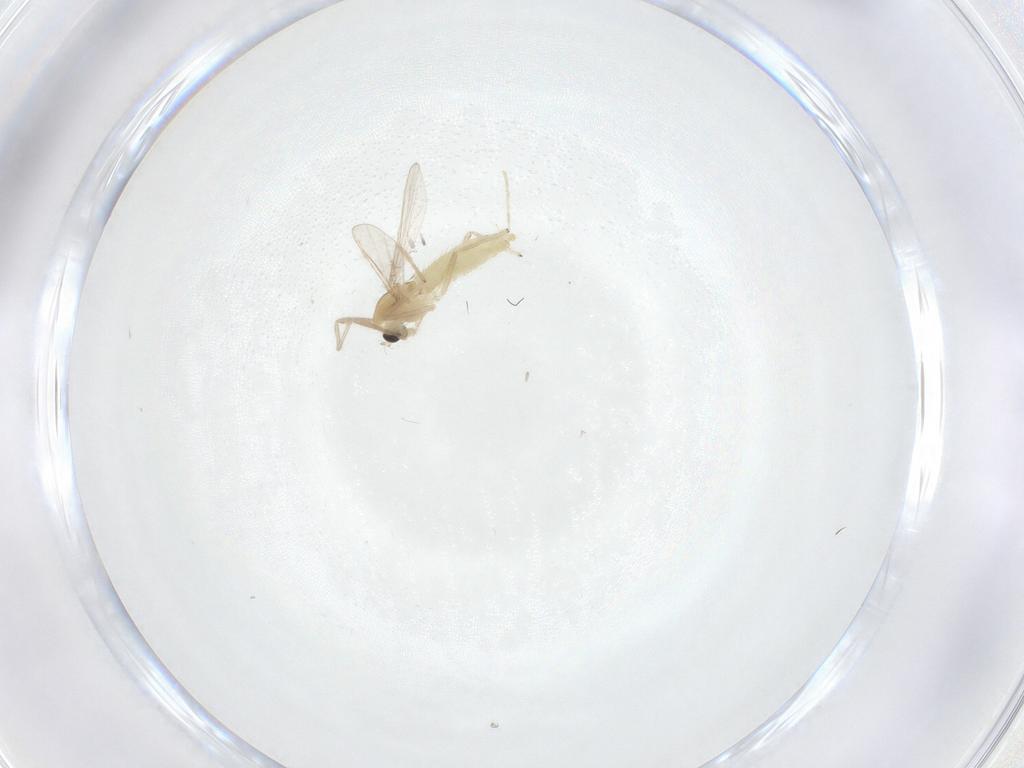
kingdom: Animalia
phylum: Arthropoda
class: Insecta
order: Diptera
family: Chironomidae
